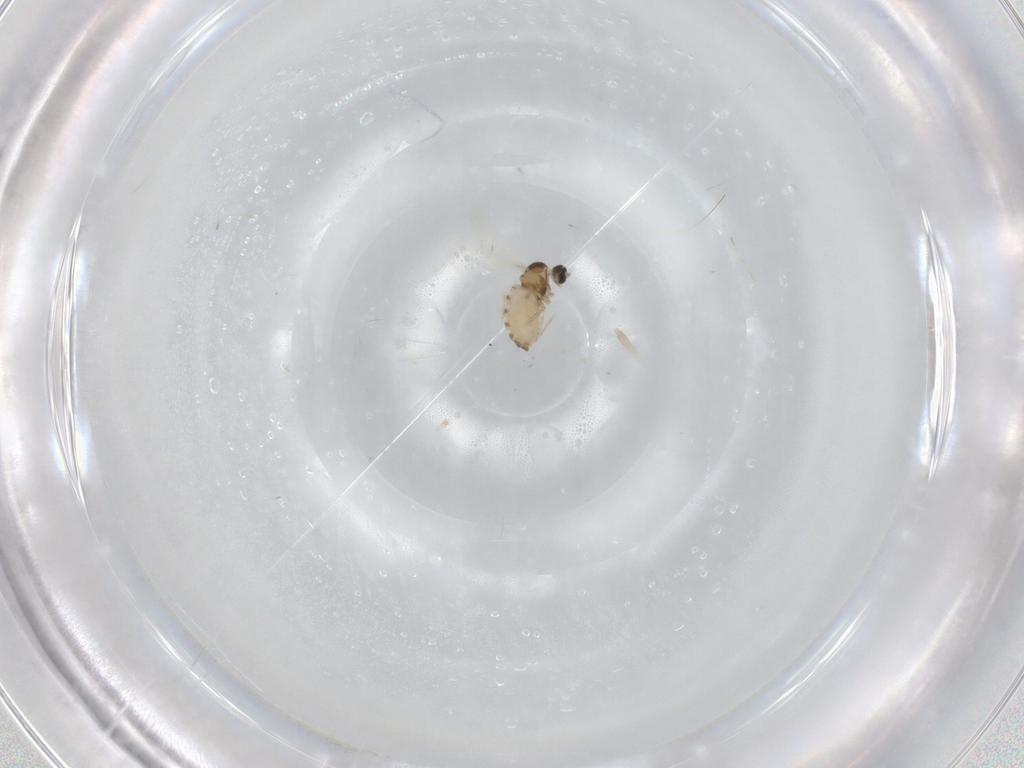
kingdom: Animalia
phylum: Arthropoda
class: Insecta
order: Diptera
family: Cecidomyiidae
